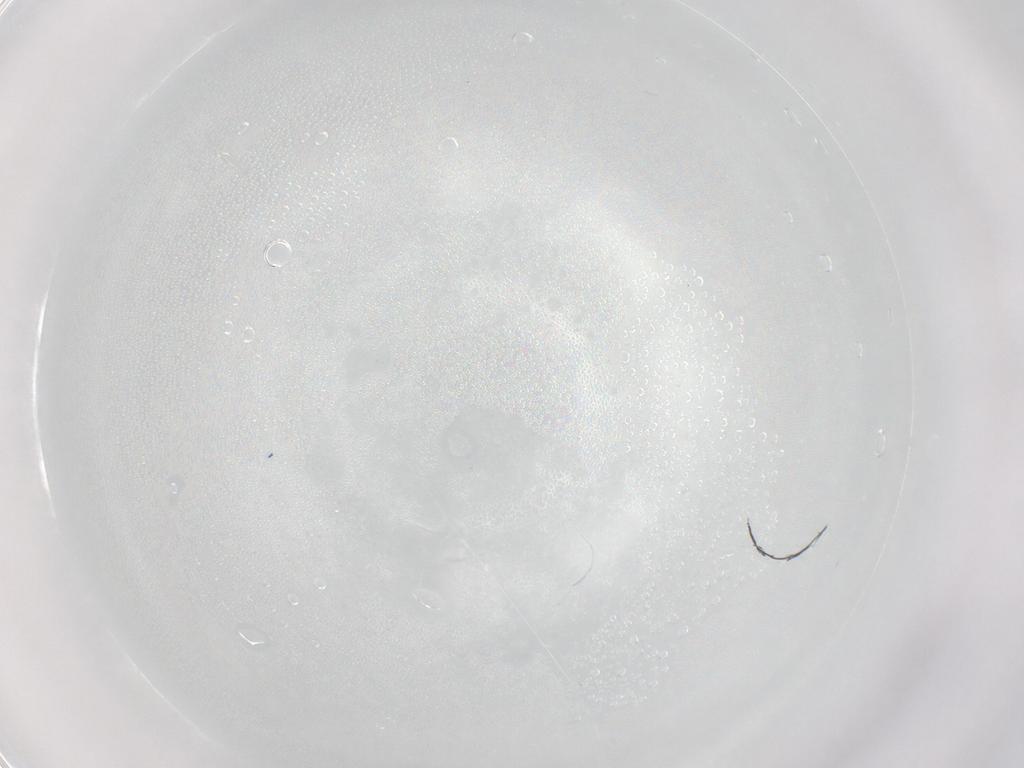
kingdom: Animalia
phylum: Arthropoda
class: Insecta
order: Diptera
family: Phoridae
